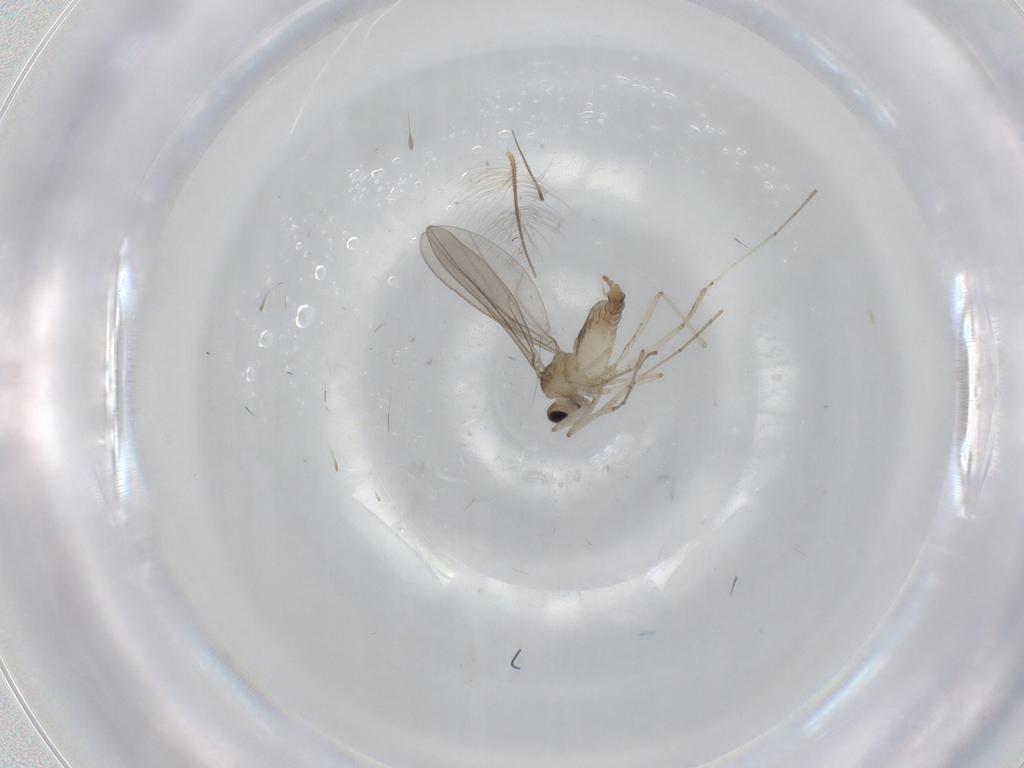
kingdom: Animalia
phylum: Arthropoda
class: Insecta
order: Diptera
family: Cecidomyiidae
